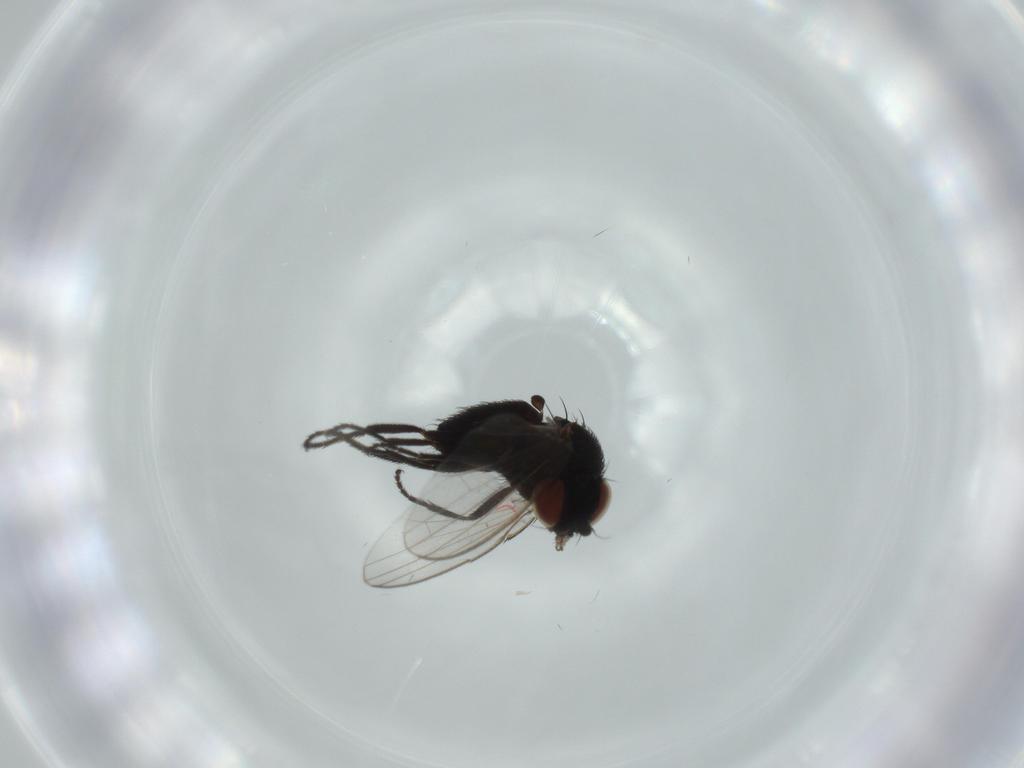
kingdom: Animalia
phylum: Arthropoda
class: Insecta
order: Diptera
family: Milichiidae
